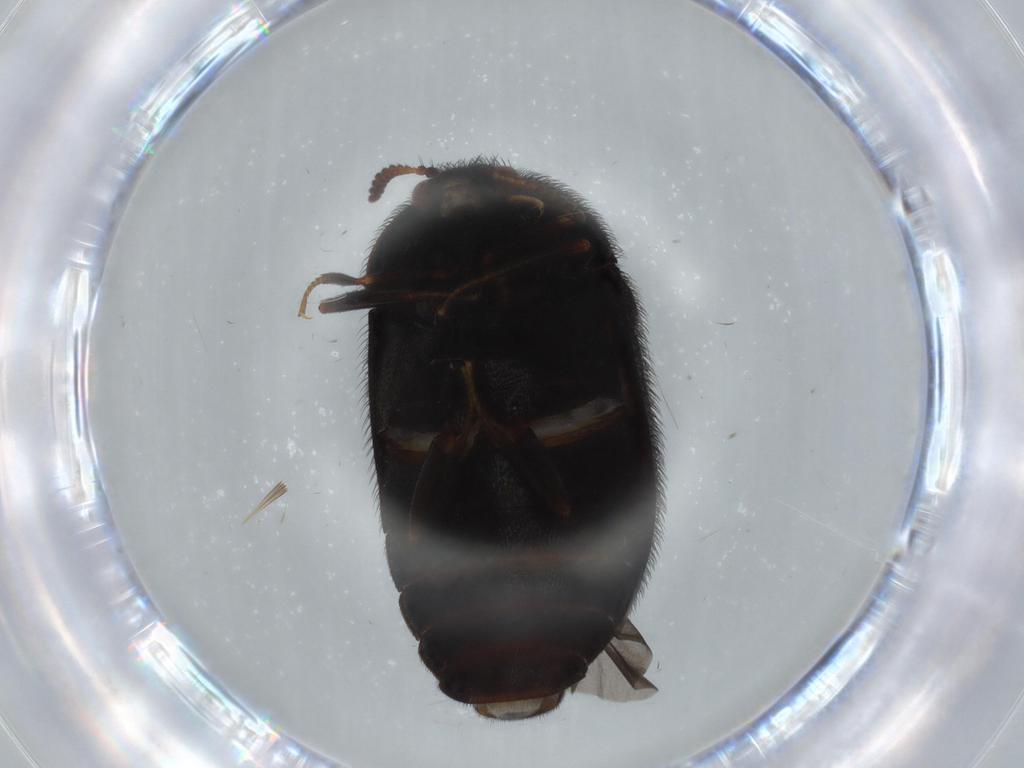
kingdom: Animalia
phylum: Arthropoda
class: Insecta
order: Coleoptera
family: Dermestidae
